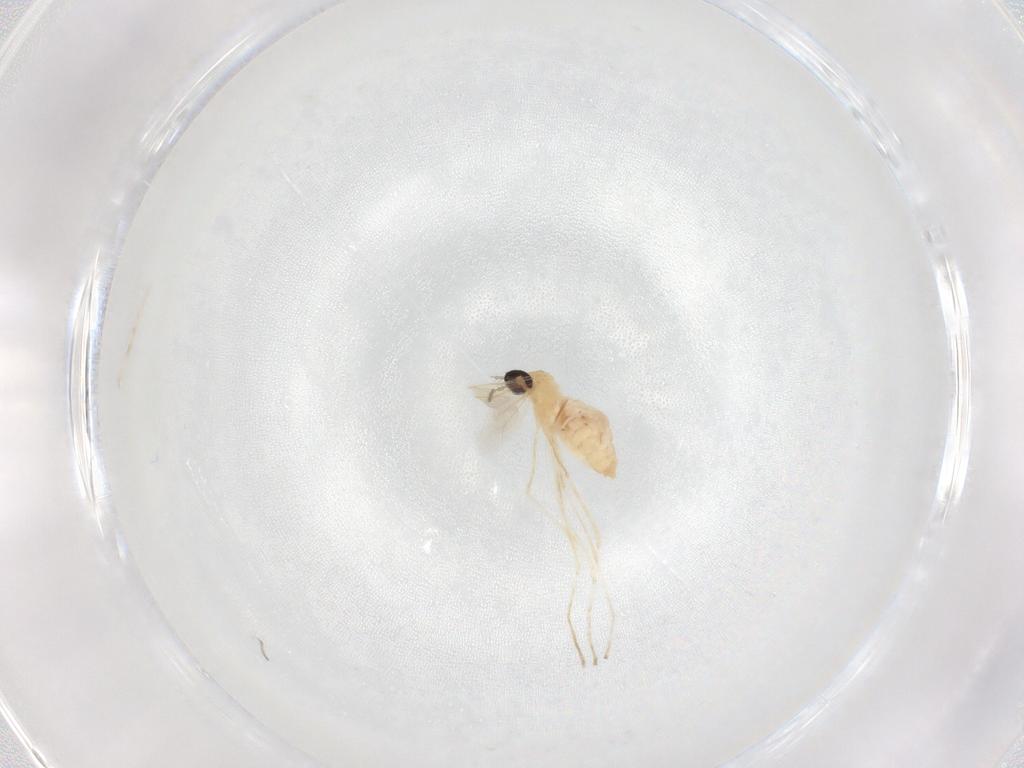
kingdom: Animalia
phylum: Arthropoda
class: Insecta
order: Diptera
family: Cecidomyiidae
